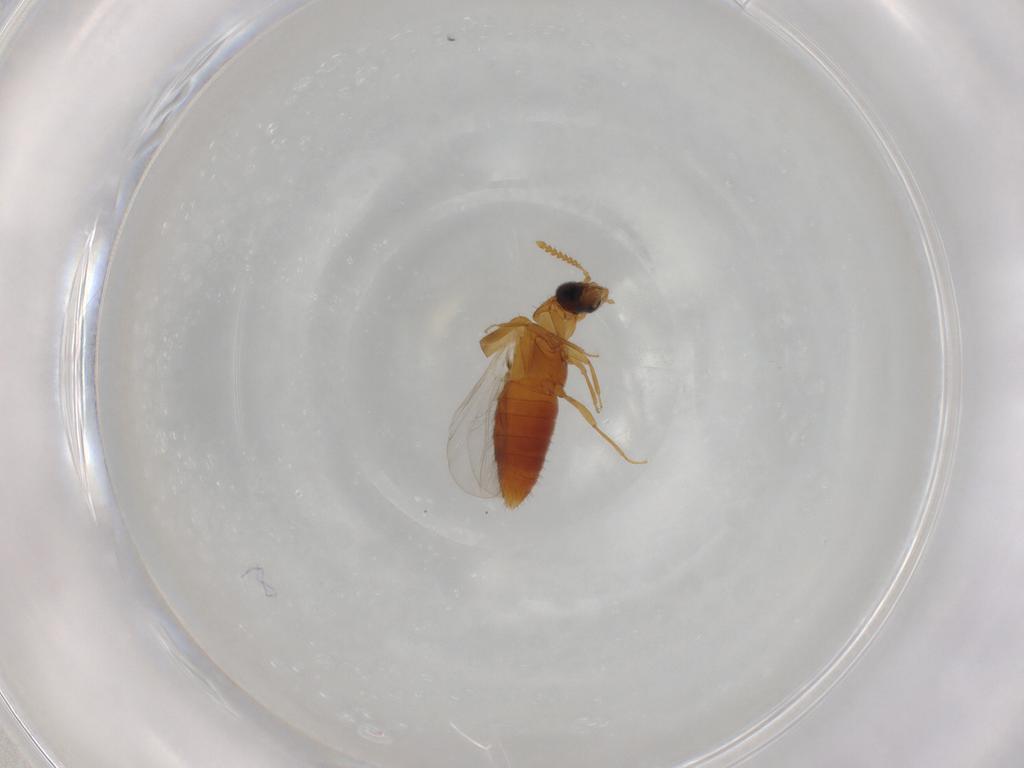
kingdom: Animalia
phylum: Arthropoda
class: Insecta
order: Coleoptera
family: Staphylinidae
